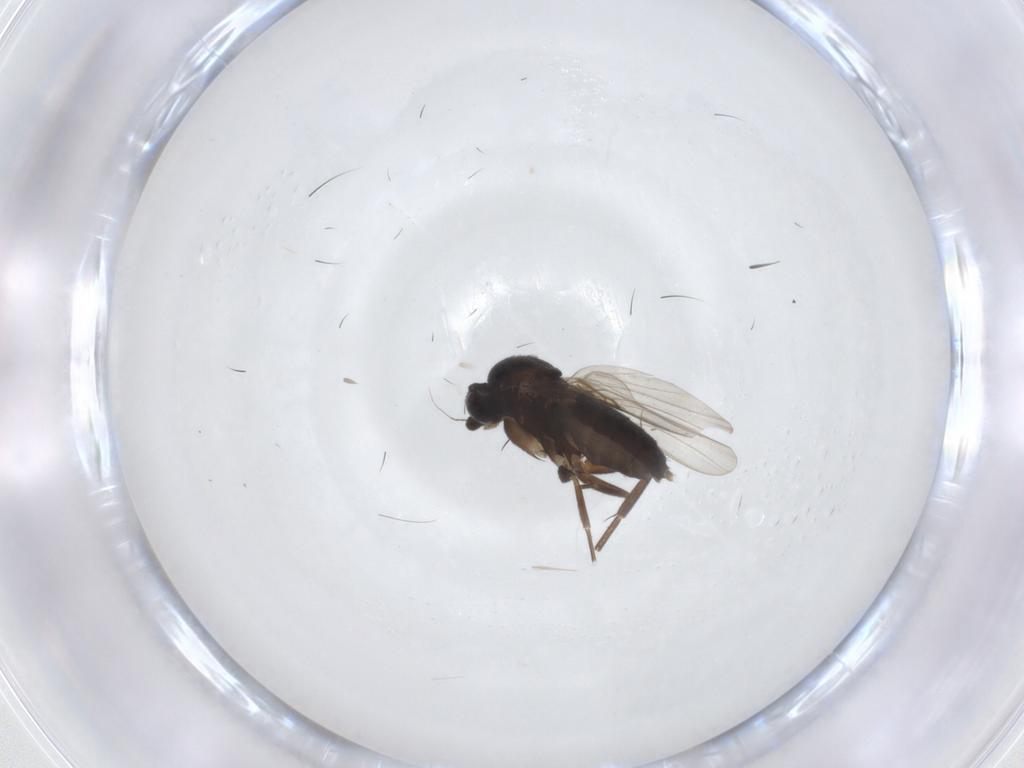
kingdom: Animalia
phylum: Arthropoda
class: Insecta
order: Diptera
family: Phoridae
